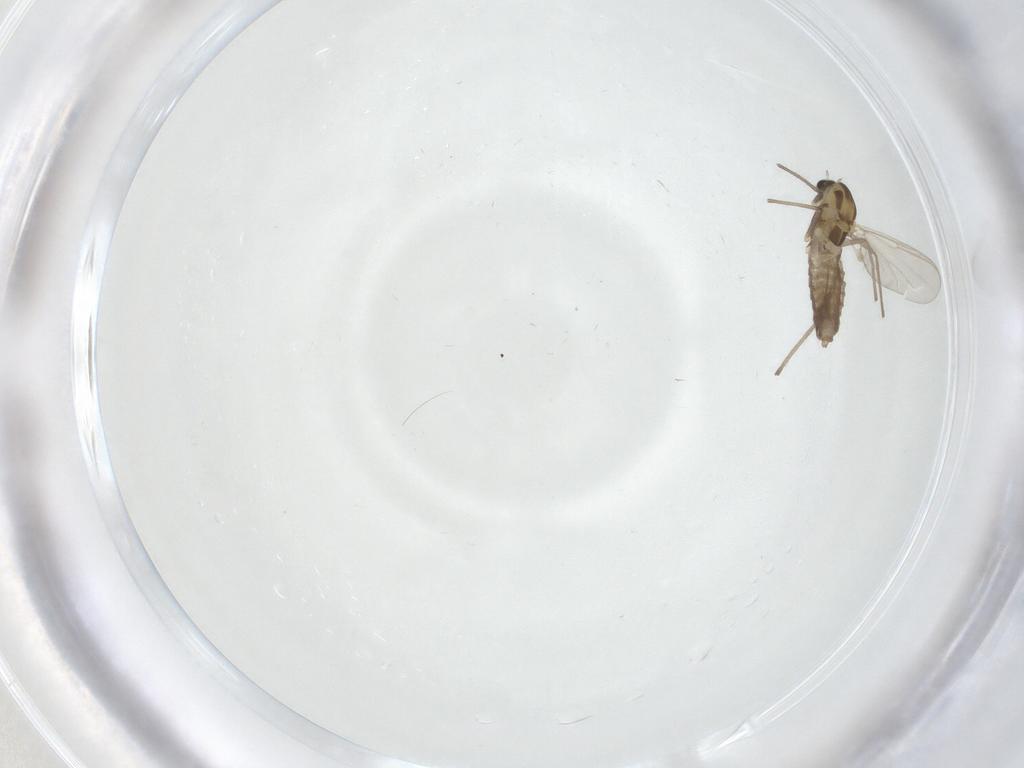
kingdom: Animalia
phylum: Arthropoda
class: Insecta
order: Diptera
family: Chironomidae
